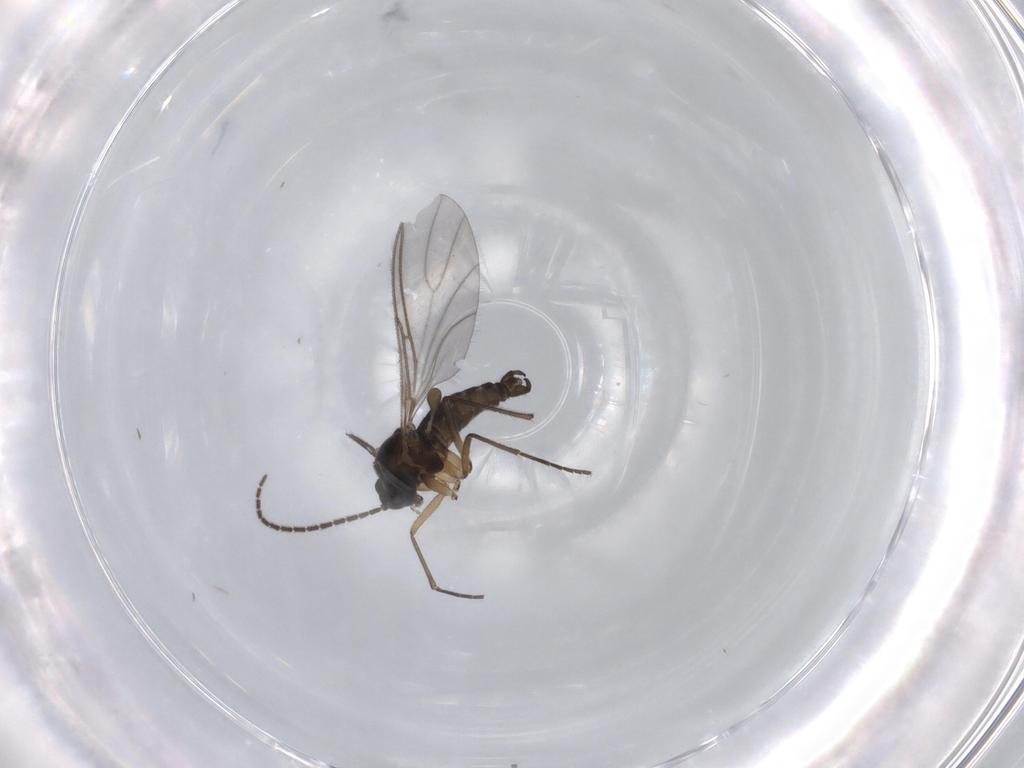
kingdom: Animalia
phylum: Arthropoda
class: Insecta
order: Diptera
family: Sciaridae
